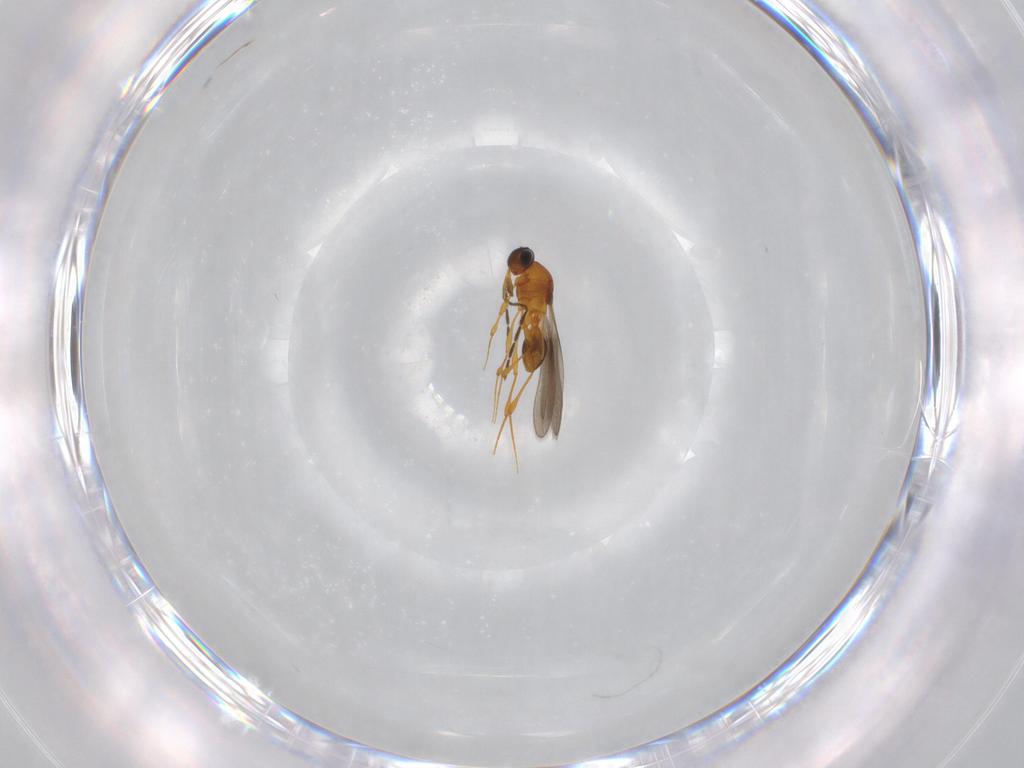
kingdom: Animalia
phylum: Arthropoda
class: Insecta
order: Hymenoptera
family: Platygastridae
